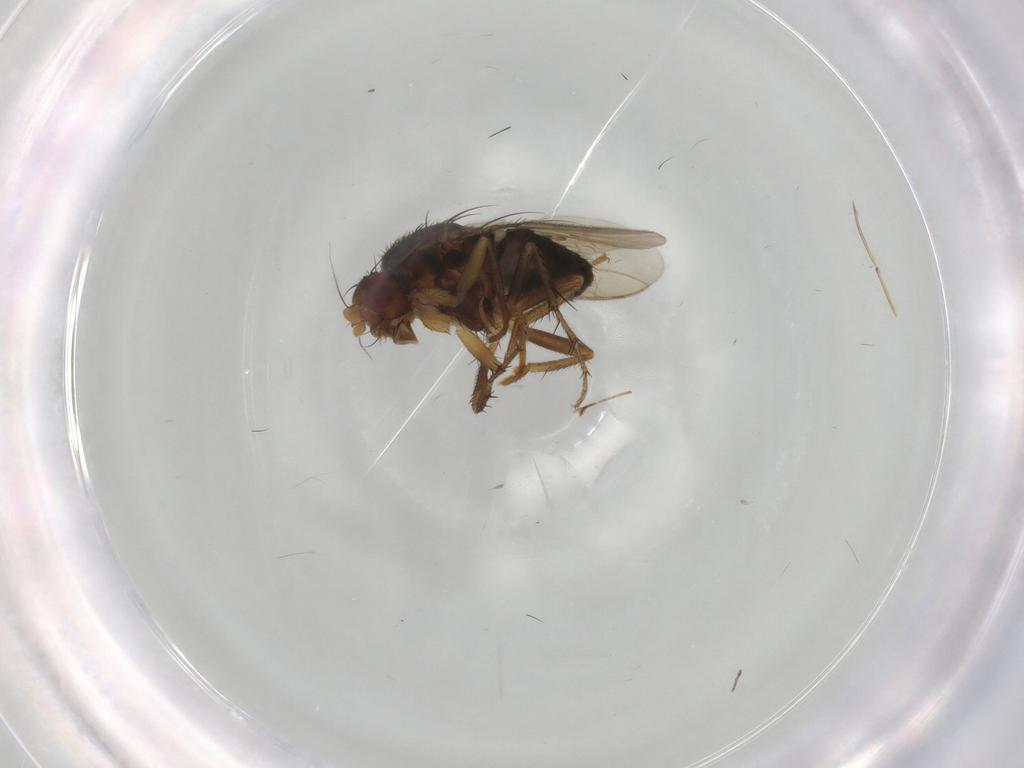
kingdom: Animalia
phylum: Arthropoda
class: Insecta
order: Diptera
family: Sphaeroceridae
